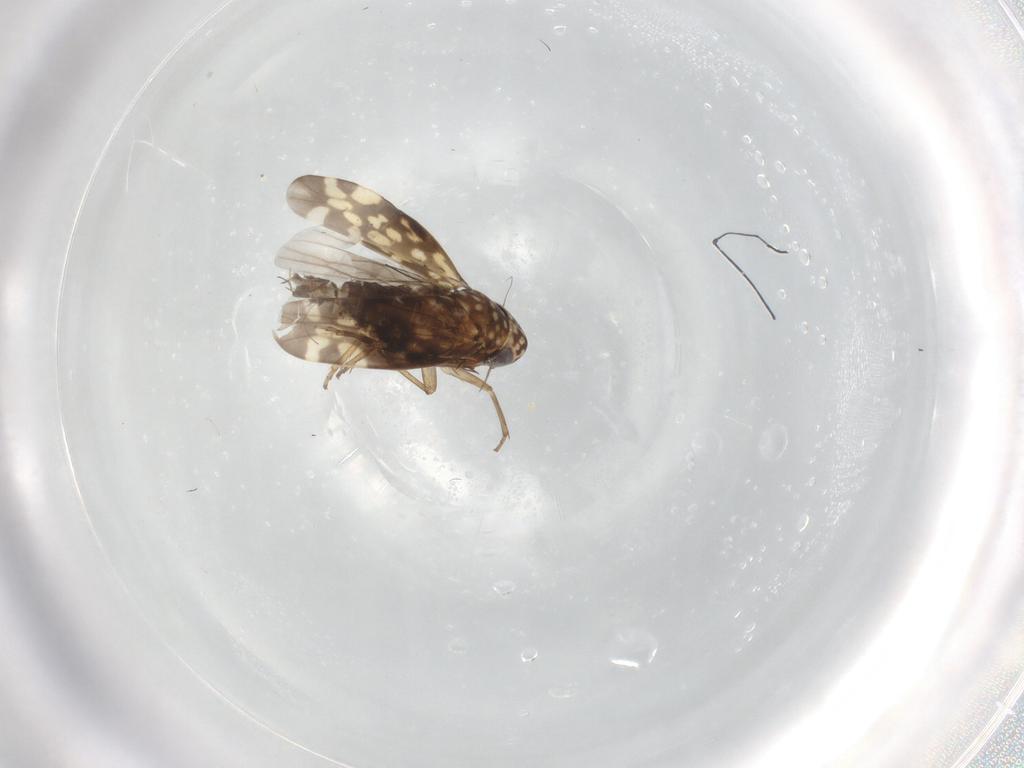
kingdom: Animalia
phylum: Arthropoda
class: Insecta
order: Hemiptera
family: Cicadellidae
